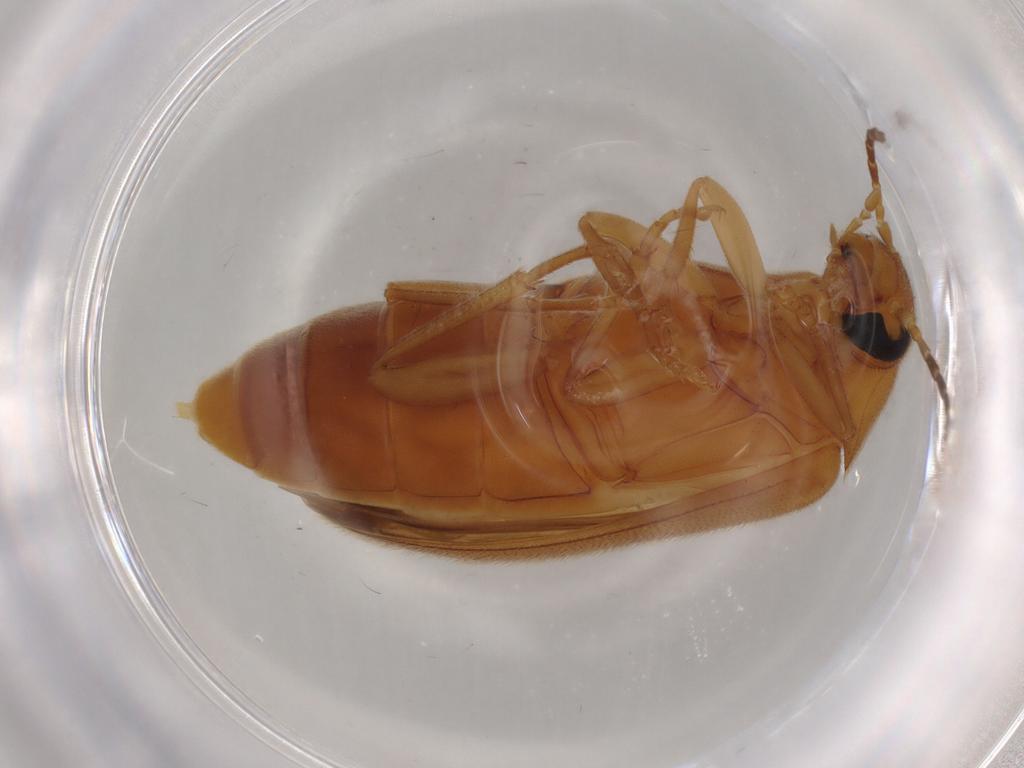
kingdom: Animalia
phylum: Arthropoda
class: Insecta
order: Coleoptera
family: Scraptiidae
